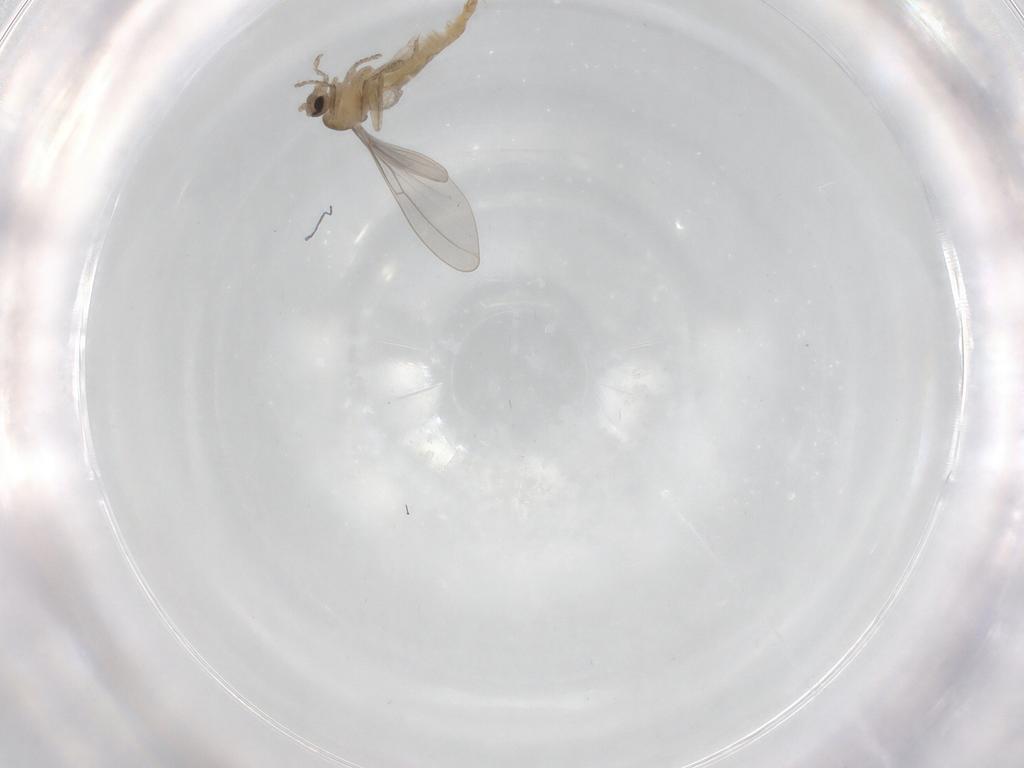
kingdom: Animalia
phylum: Arthropoda
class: Insecta
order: Diptera
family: Cecidomyiidae
